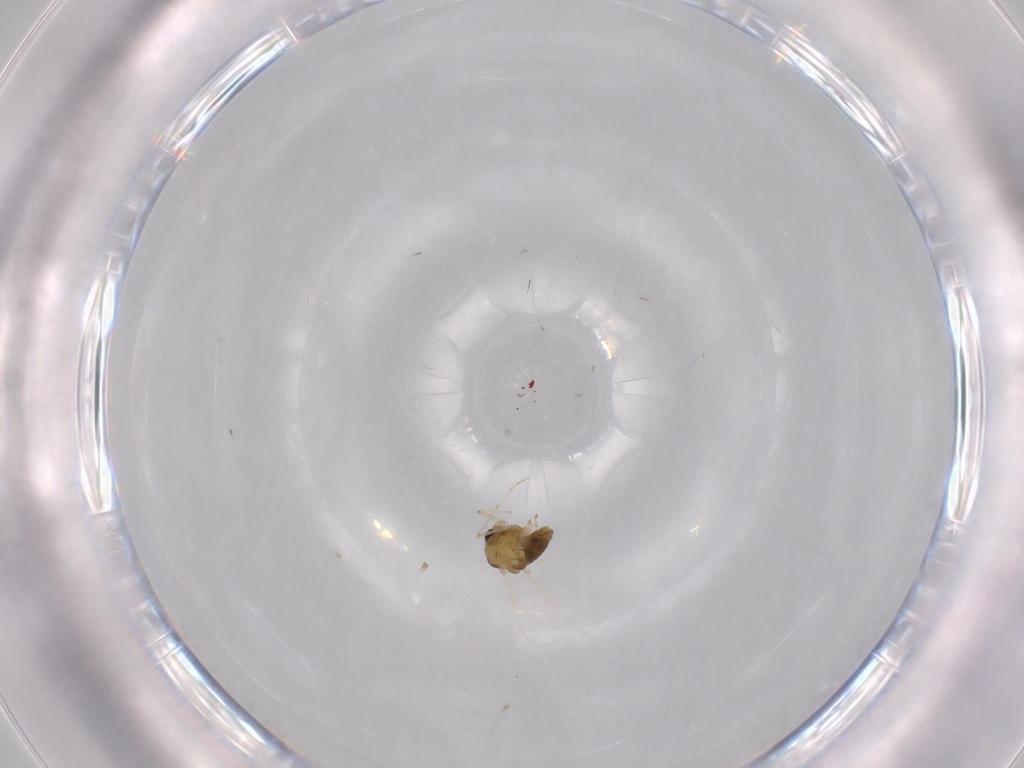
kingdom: Animalia
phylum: Arthropoda
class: Insecta
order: Diptera
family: Chironomidae
